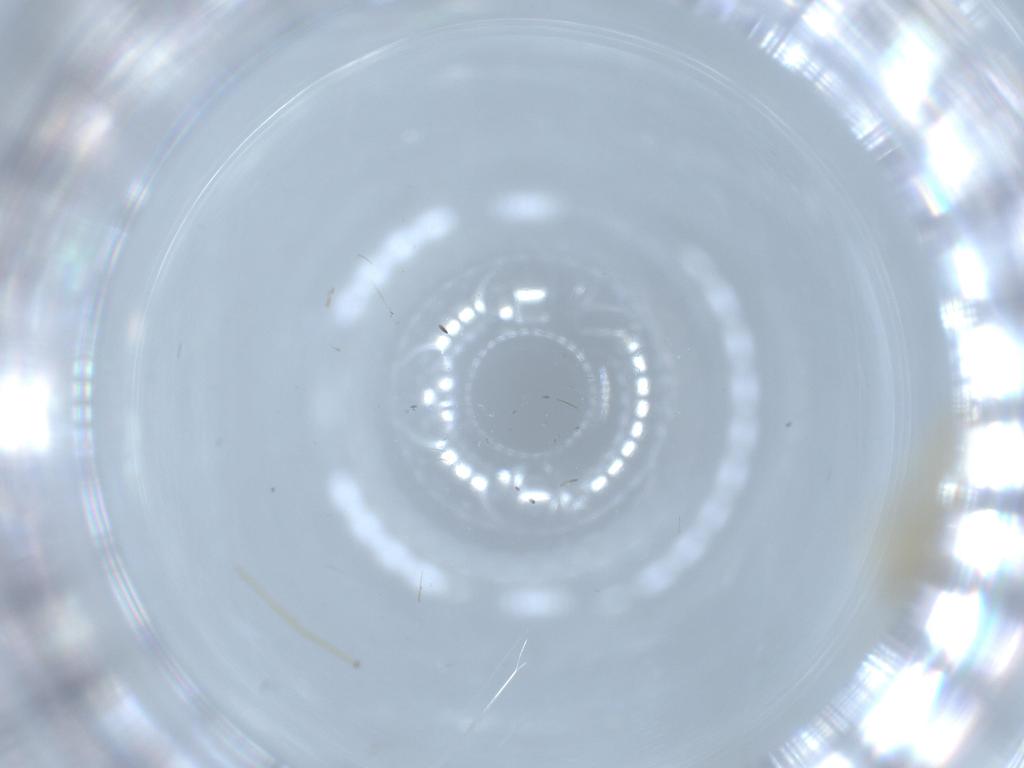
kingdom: Animalia
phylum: Arthropoda
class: Insecta
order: Diptera
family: Chironomidae
